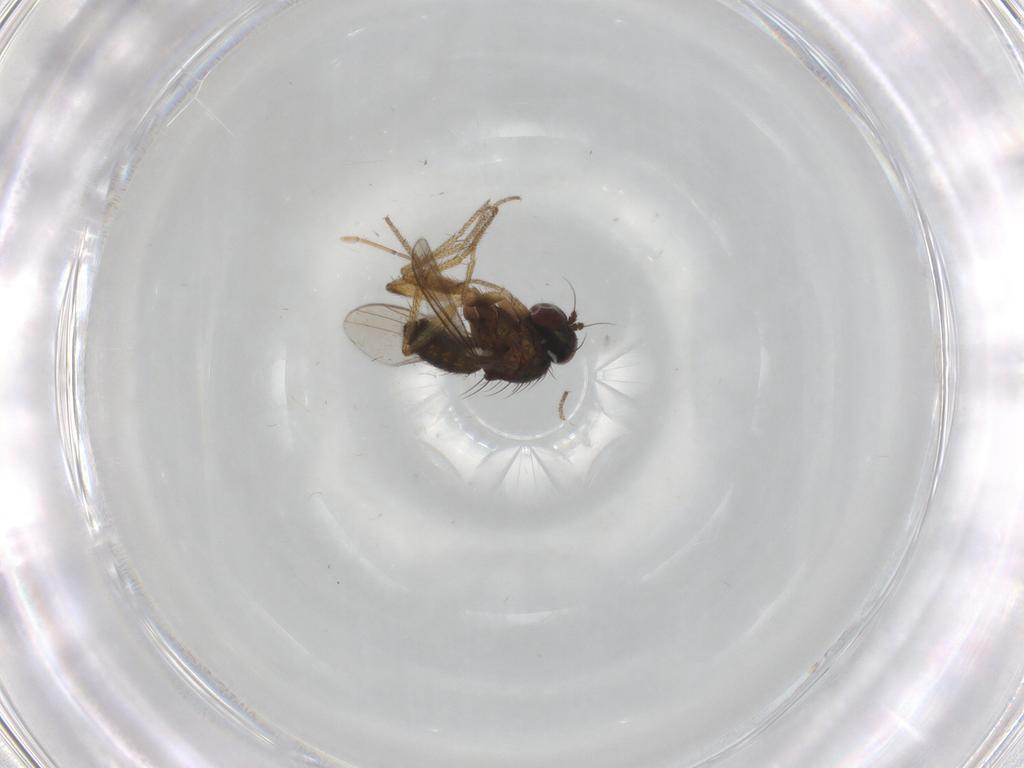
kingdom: Animalia
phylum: Arthropoda
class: Insecta
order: Diptera
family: Dolichopodidae
